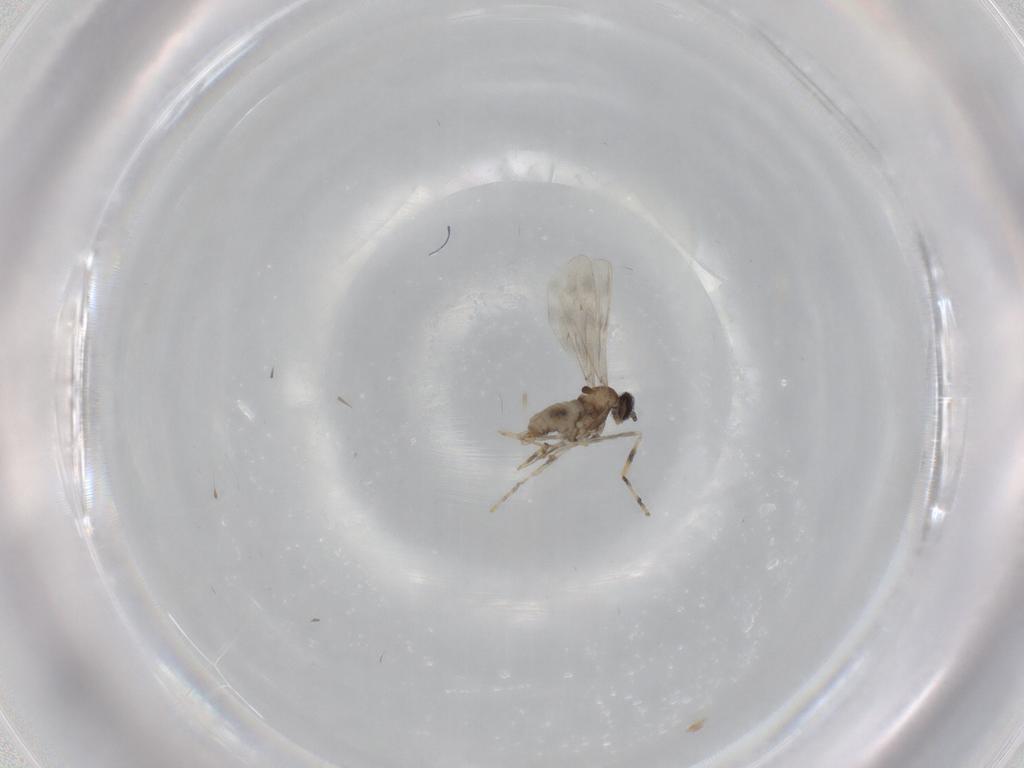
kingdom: Animalia
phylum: Arthropoda
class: Insecta
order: Diptera
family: Cecidomyiidae
